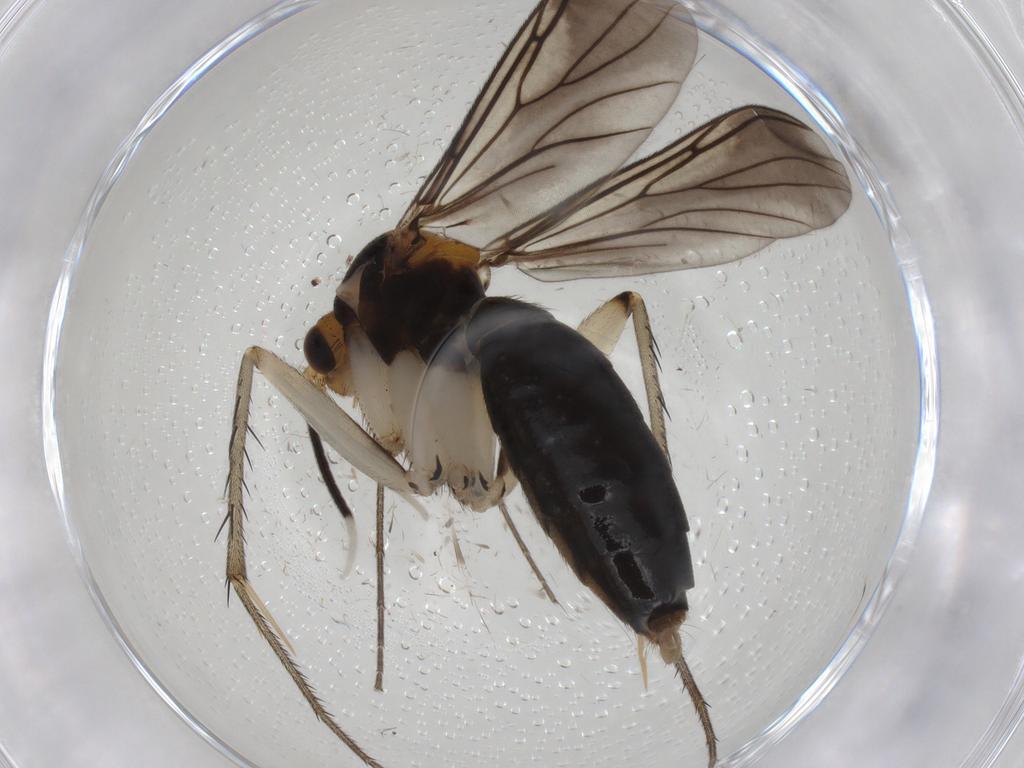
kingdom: Animalia
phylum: Arthropoda
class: Insecta
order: Diptera
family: Mycetophilidae
